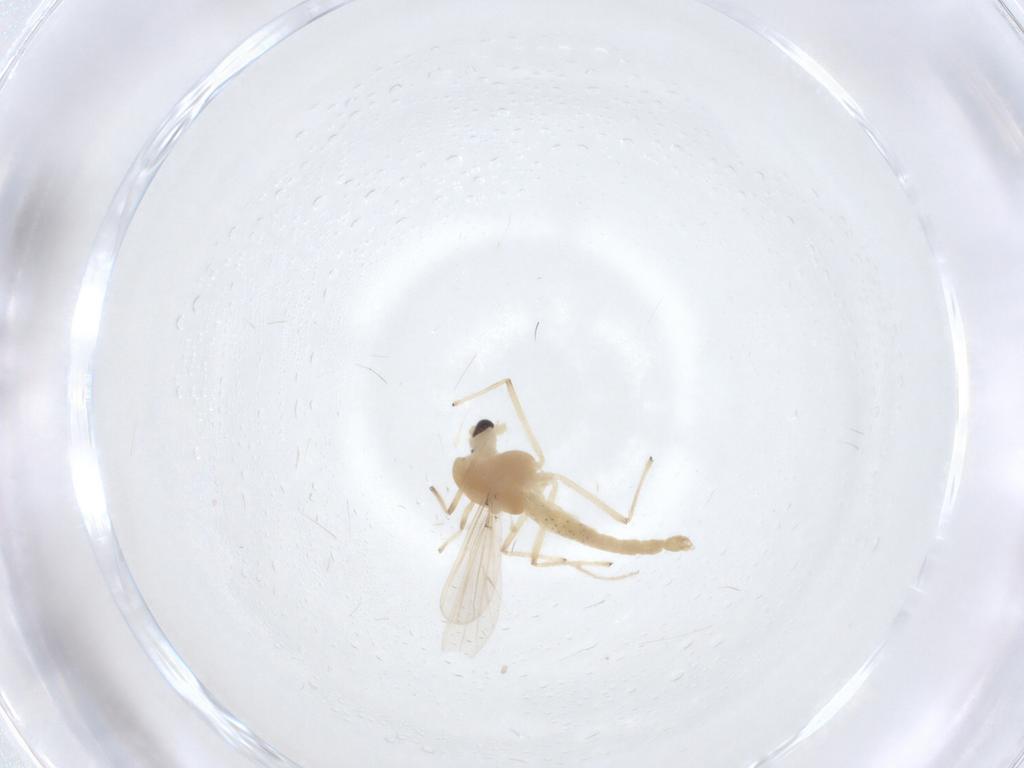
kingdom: Animalia
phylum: Arthropoda
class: Insecta
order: Diptera
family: Chironomidae
